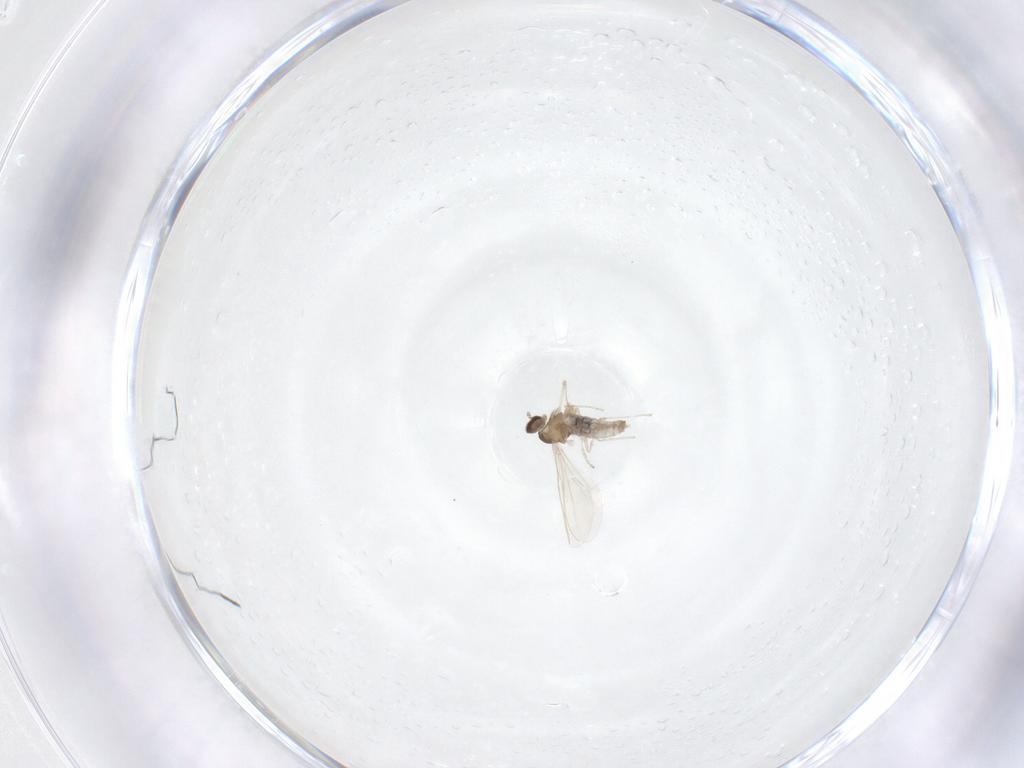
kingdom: Animalia
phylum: Arthropoda
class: Insecta
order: Diptera
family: Cecidomyiidae
